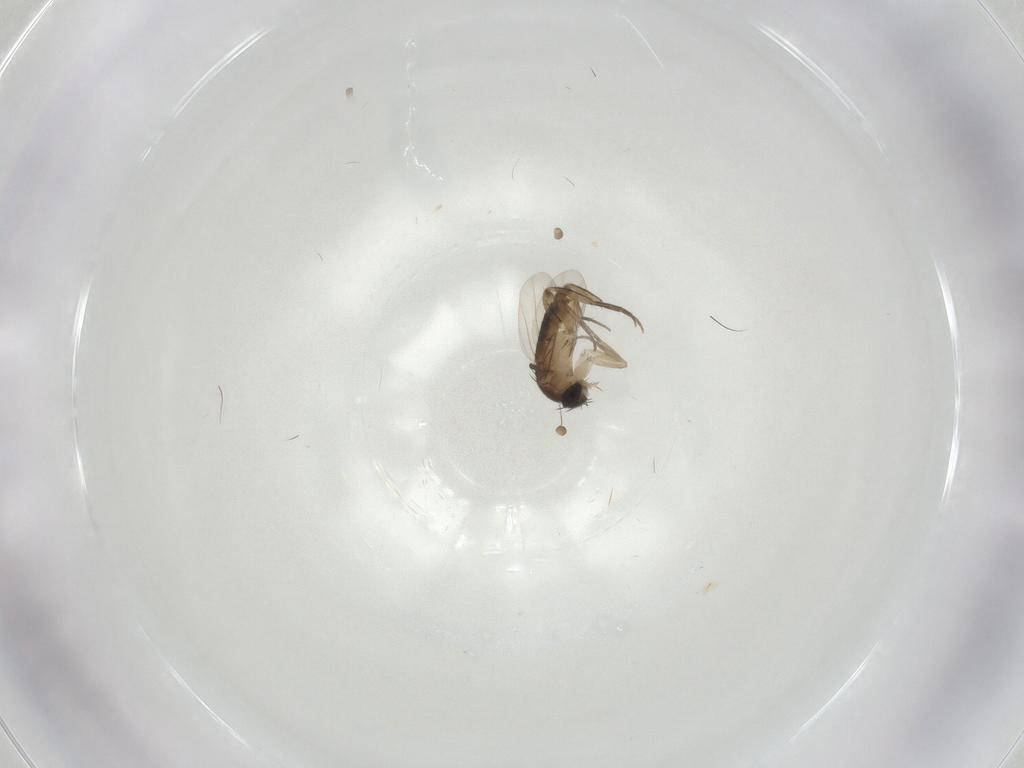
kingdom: Animalia
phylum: Arthropoda
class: Insecta
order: Diptera
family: Phoridae
